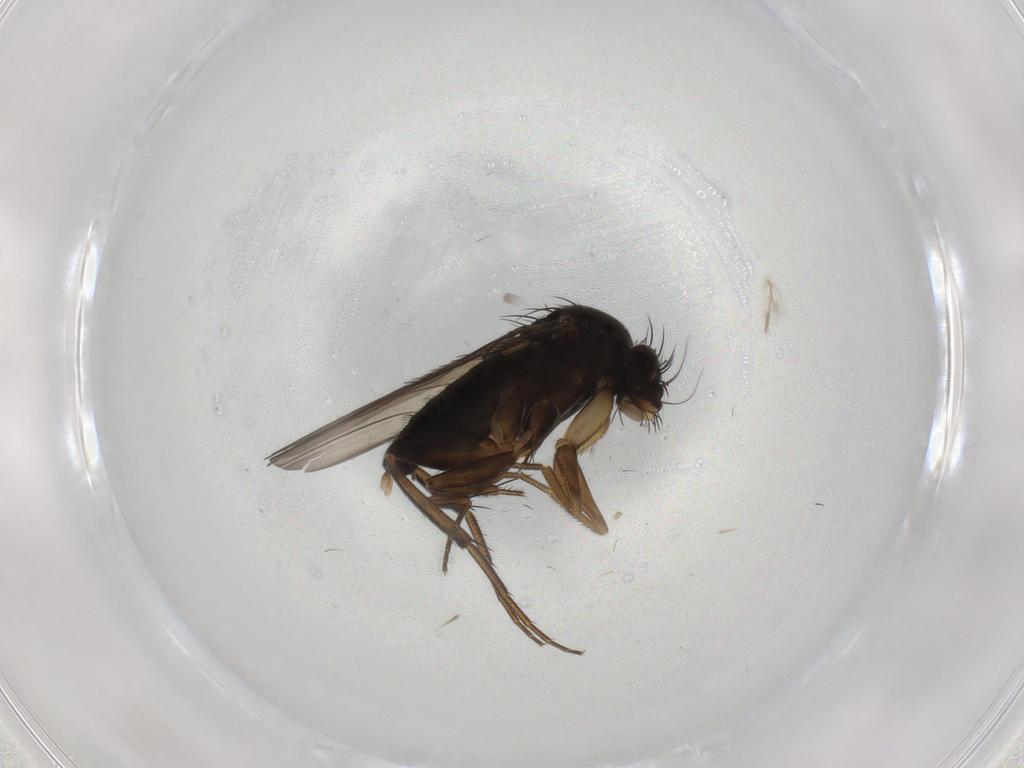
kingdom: Animalia
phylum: Arthropoda
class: Insecta
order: Diptera
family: Phoridae
